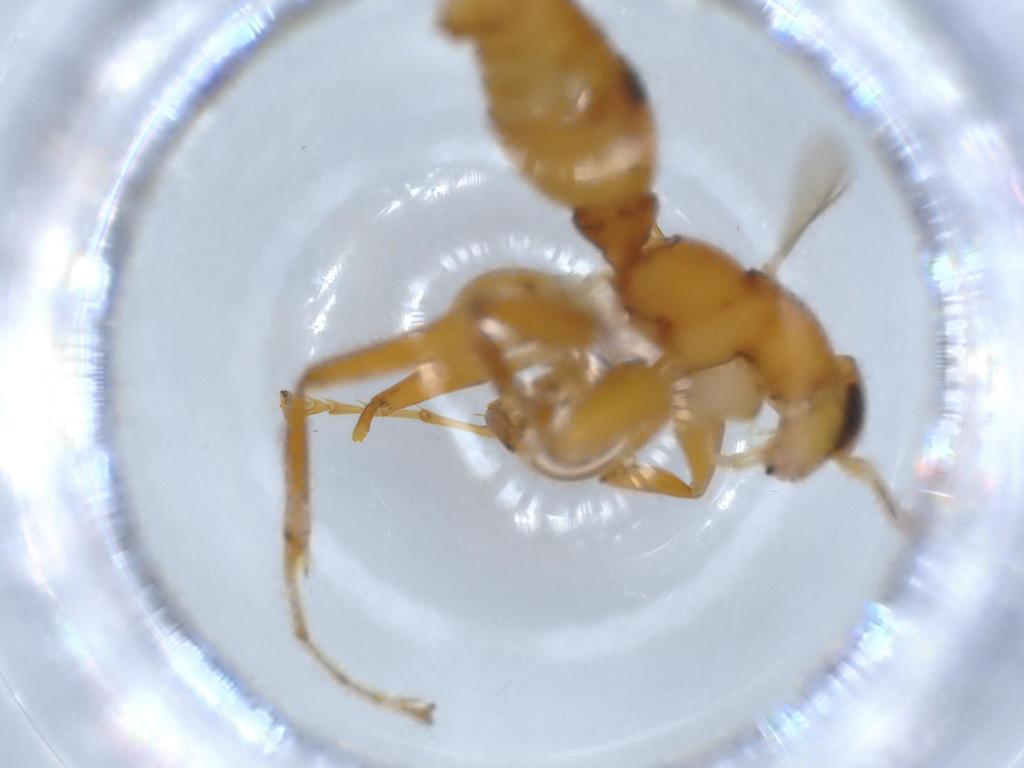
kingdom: Animalia
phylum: Arthropoda
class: Insecta
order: Hymenoptera
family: Rhopalosomatidae
